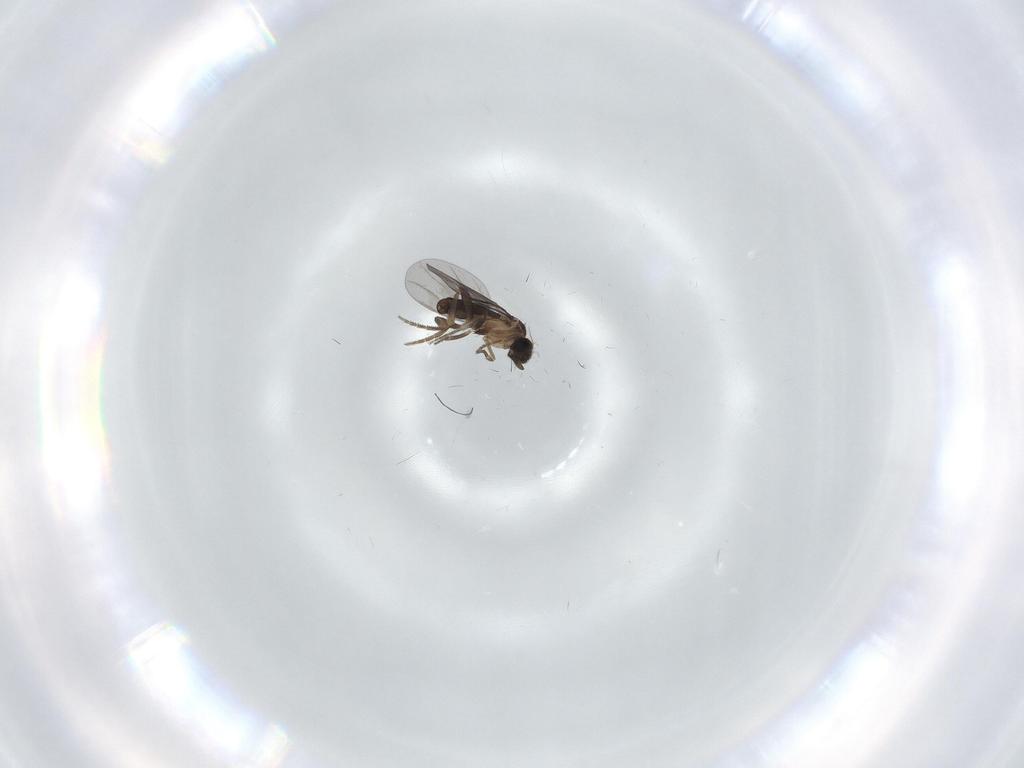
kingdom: Animalia
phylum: Arthropoda
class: Insecta
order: Diptera
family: Phoridae
